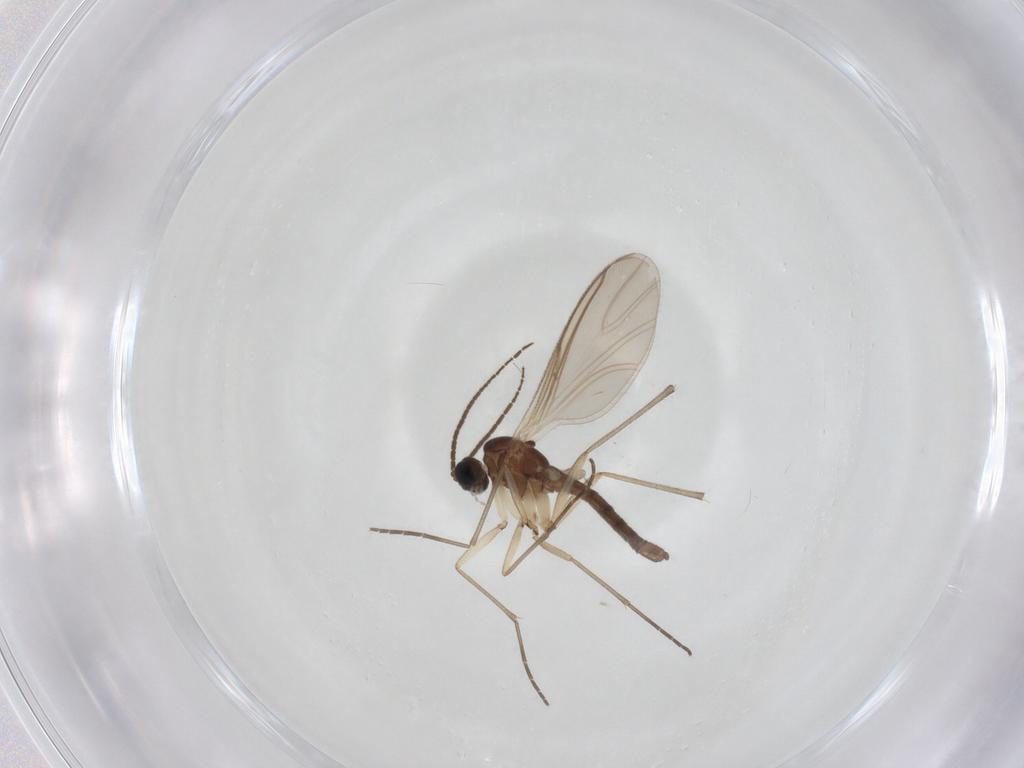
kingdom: Animalia
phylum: Arthropoda
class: Insecta
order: Diptera
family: Sciaridae
